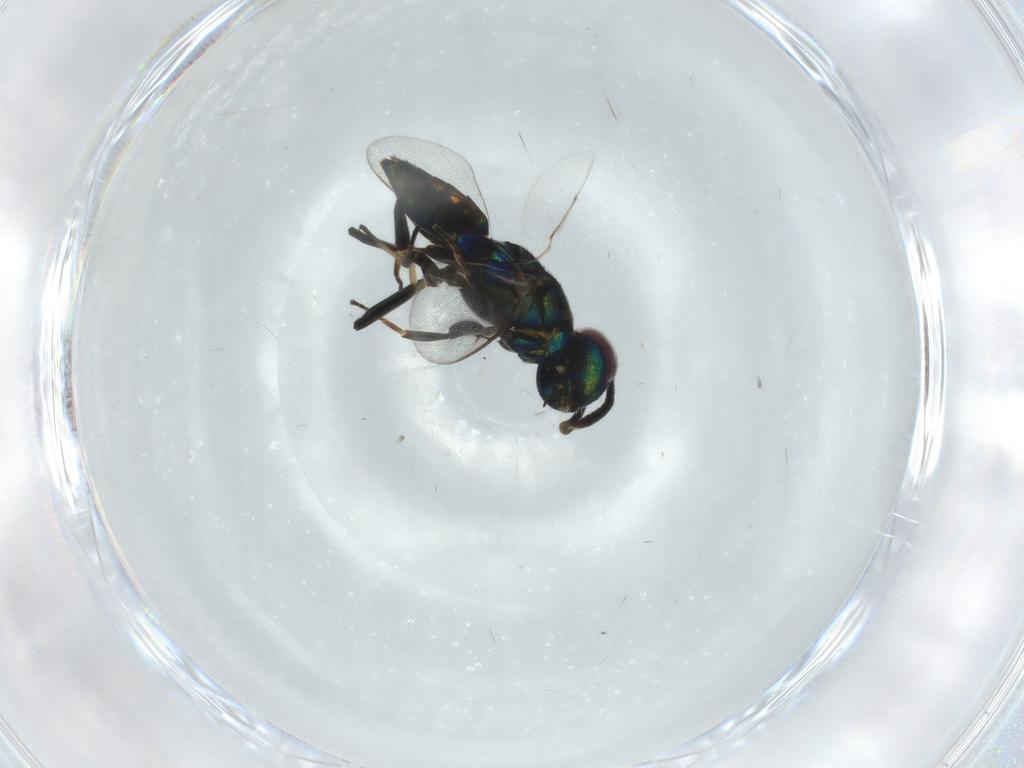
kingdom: Animalia
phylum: Arthropoda
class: Insecta
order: Hymenoptera
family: Eupelmidae
